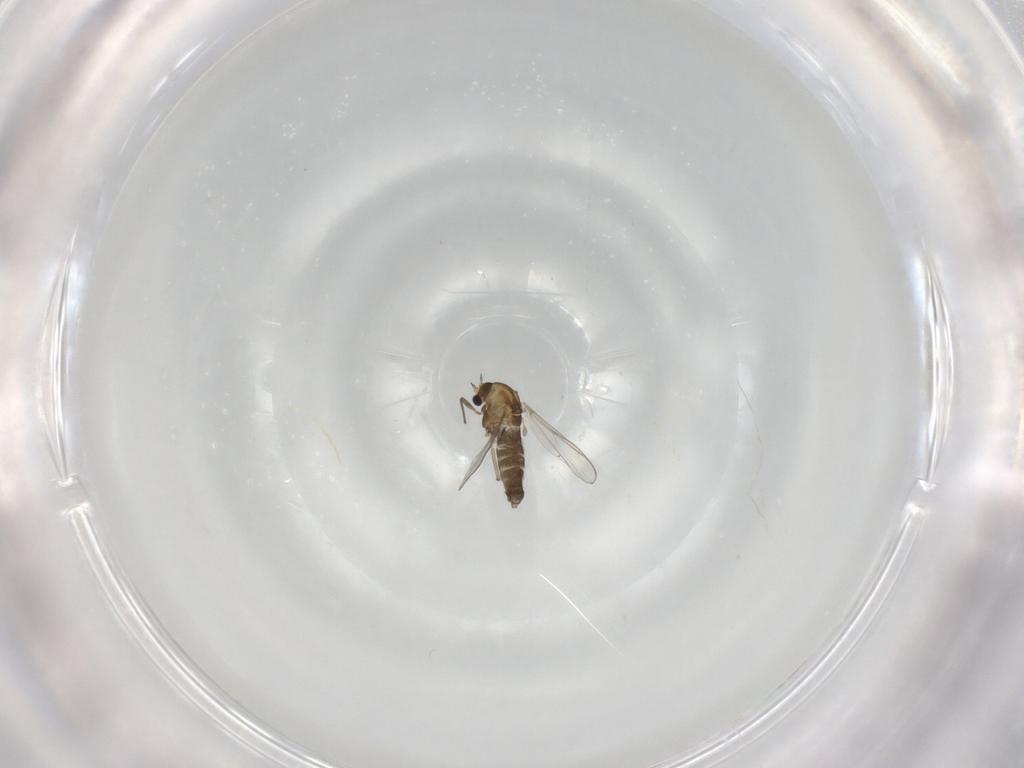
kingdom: Animalia
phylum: Arthropoda
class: Insecta
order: Diptera
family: Chironomidae
